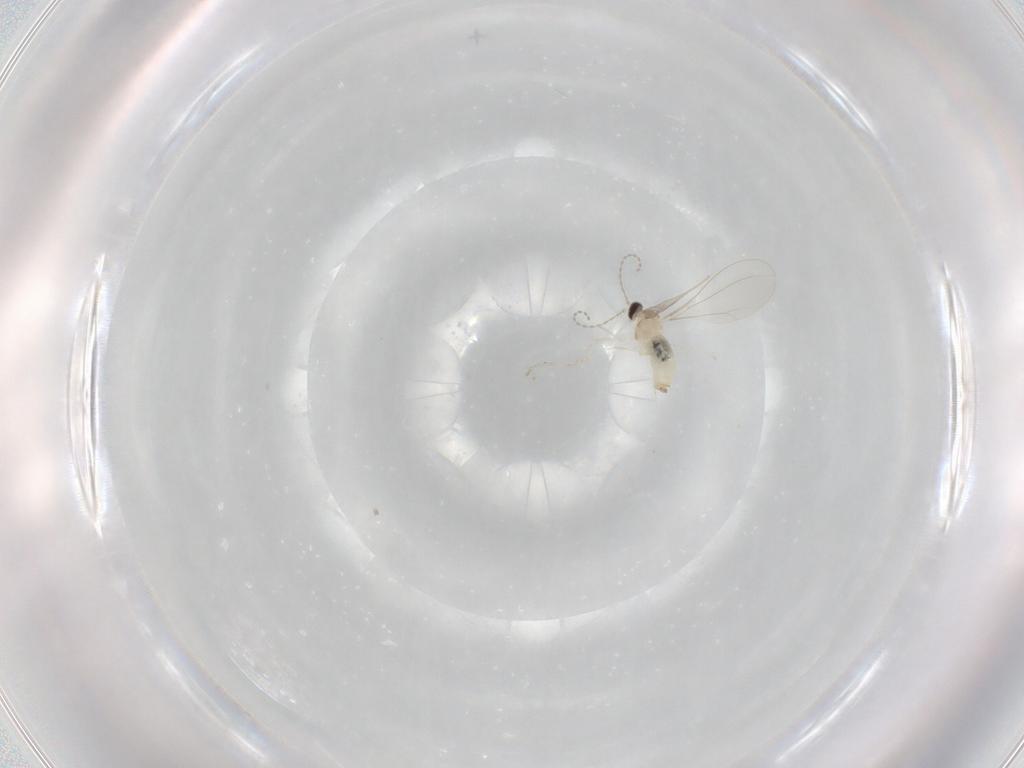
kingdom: Animalia
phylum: Arthropoda
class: Insecta
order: Diptera
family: Cecidomyiidae
